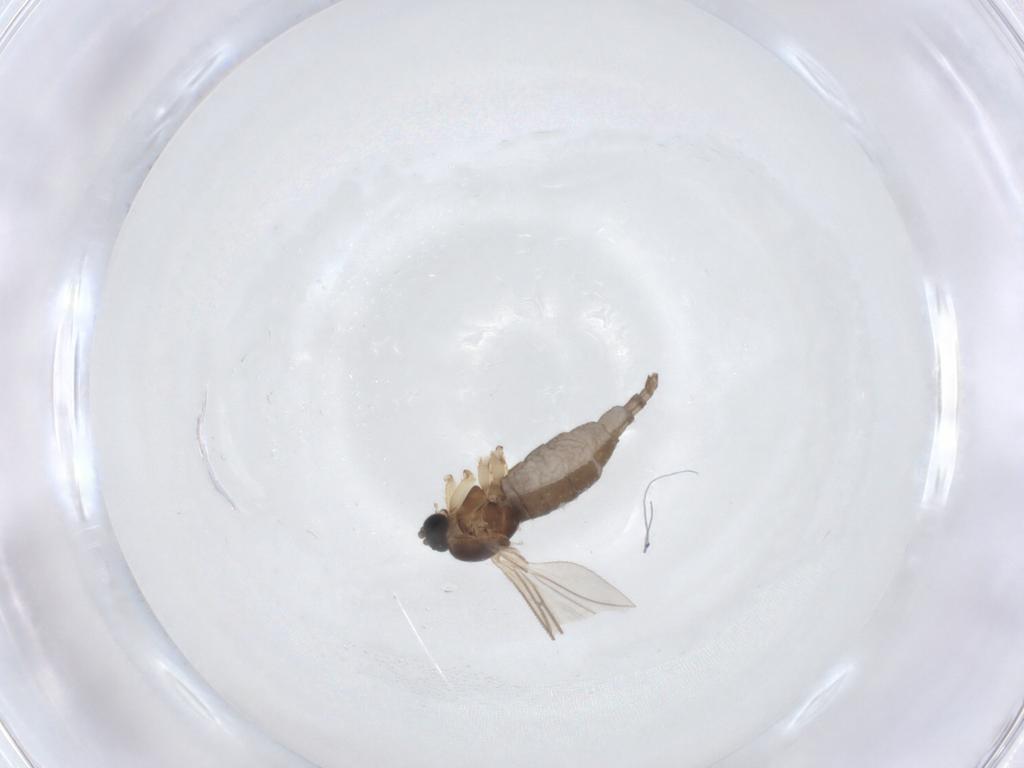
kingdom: Animalia
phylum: Arthropoda
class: Insecta
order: Diptera
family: Sciaridae
